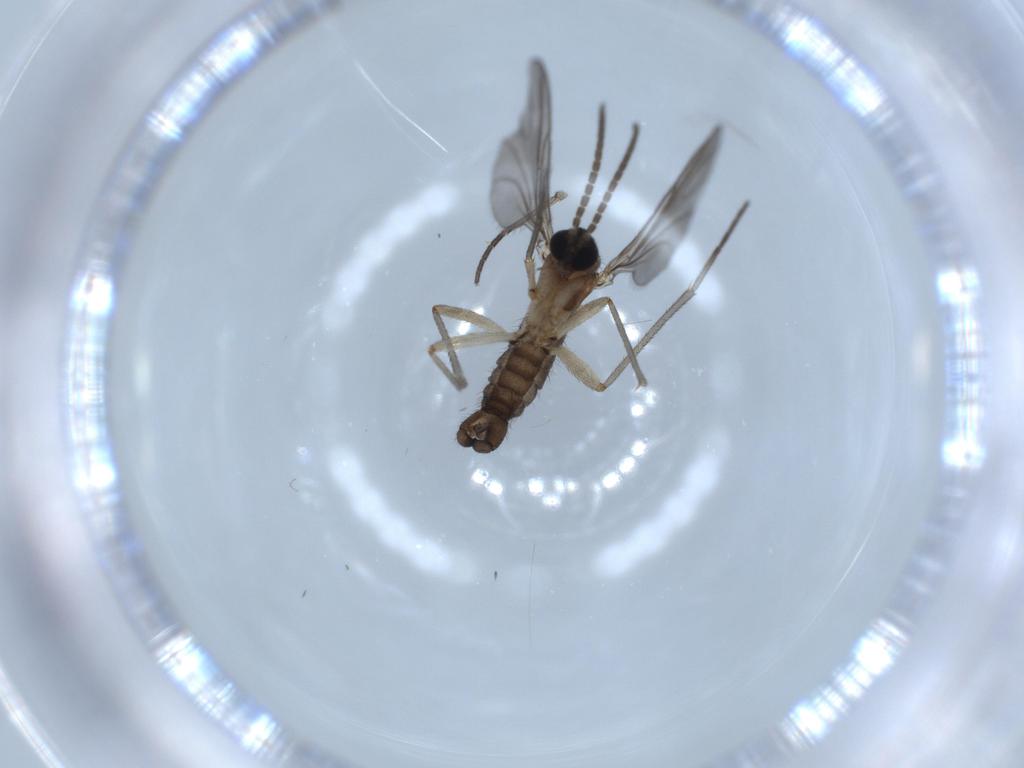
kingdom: Animalia
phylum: Arthropoda
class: Insecta
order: Diptera
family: Sciaridae
